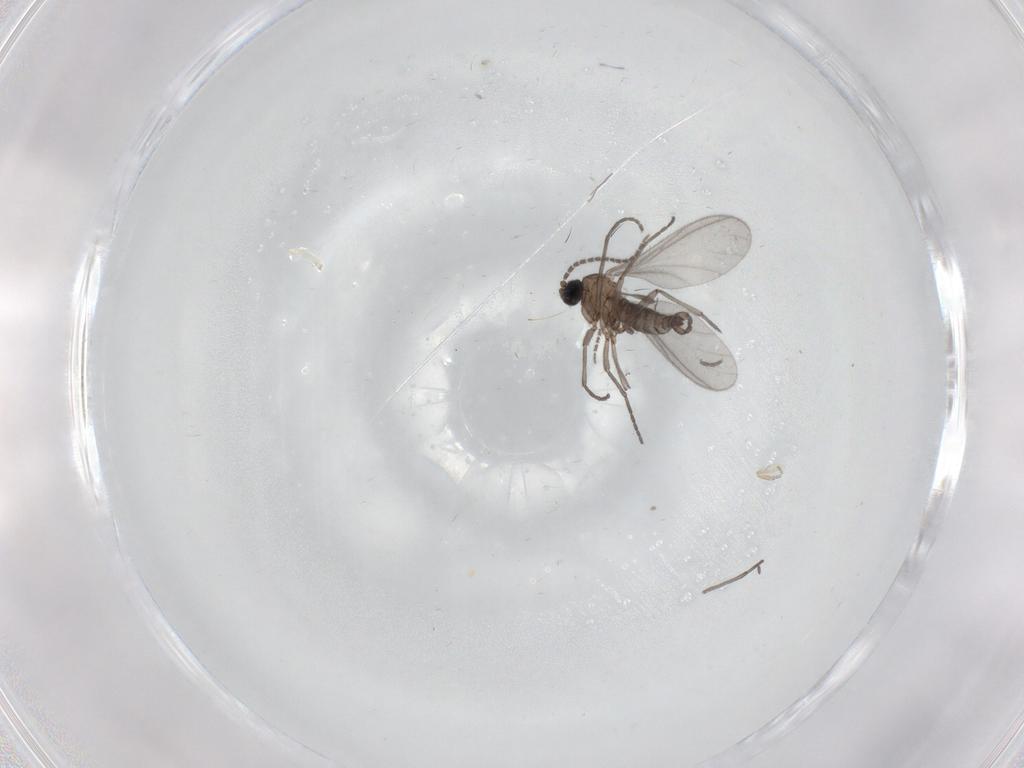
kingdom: Animalia
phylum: Arthropoda
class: Insecta
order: Diptera
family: Sciaridae
